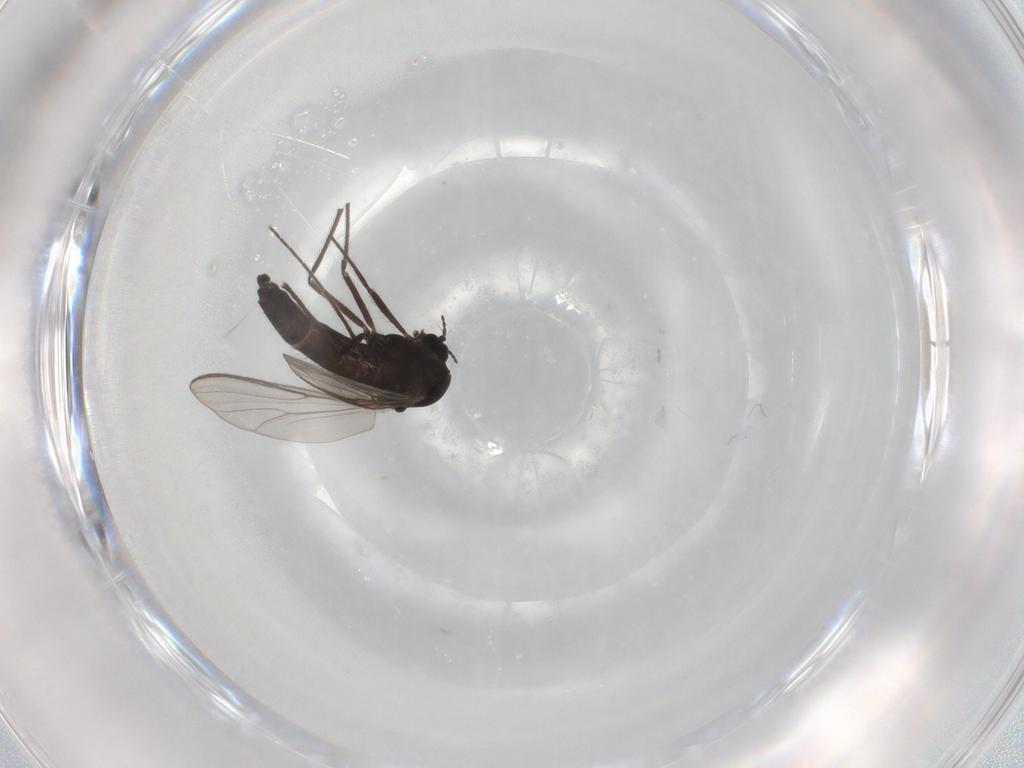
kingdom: Animalia
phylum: Arthropoda
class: Insecta
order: Diptera
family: Chironomidae
